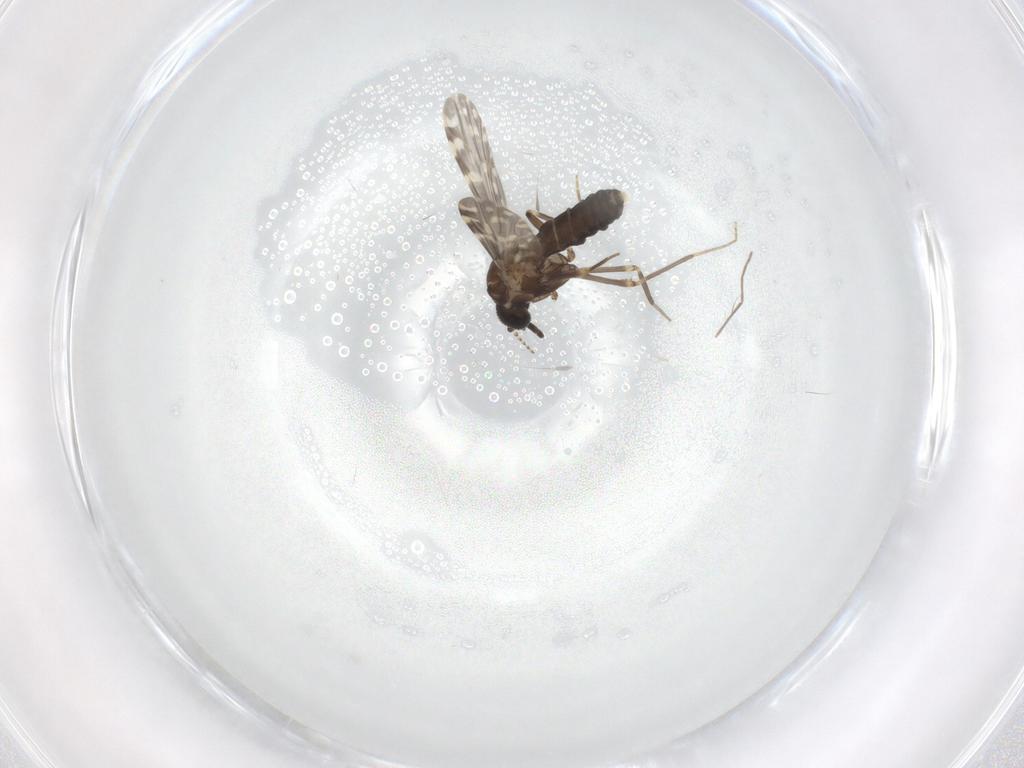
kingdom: Animalia
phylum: Arthropoda
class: Insecta
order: Diptera
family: Ceratopogonidae
